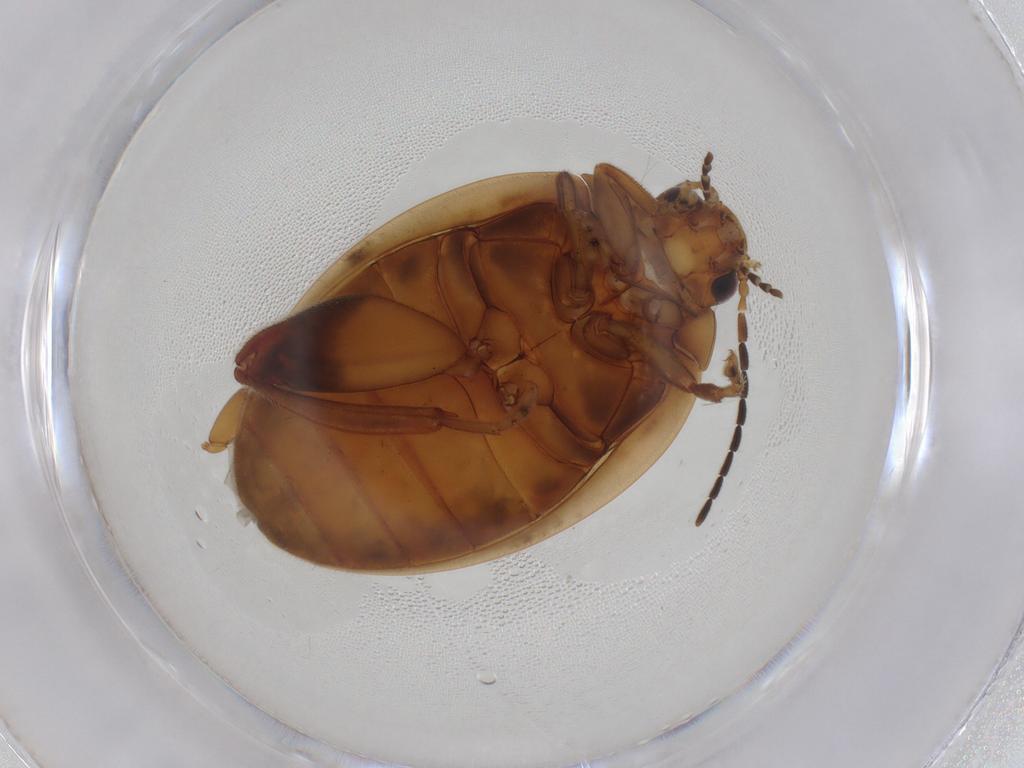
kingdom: Animalia
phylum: Arthropoda
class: Insecta
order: Coleoptera
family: Scirtidae
